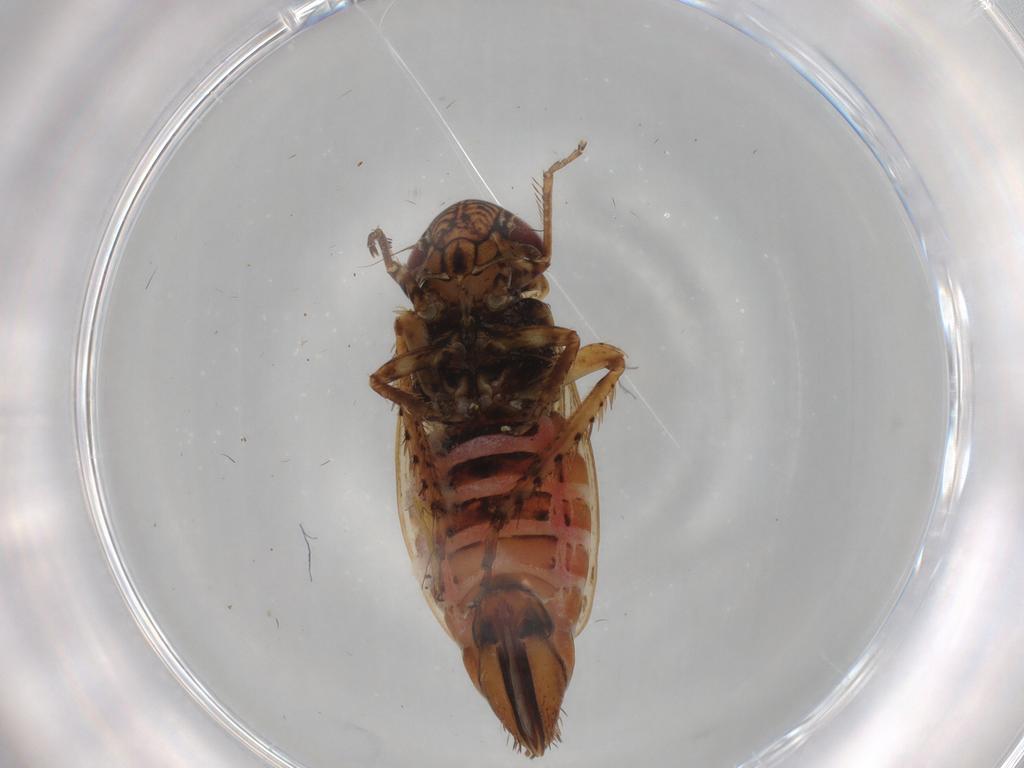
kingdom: Animalia
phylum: Arthropoda
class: Insecta
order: Hemiptera
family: Cicadellidae
